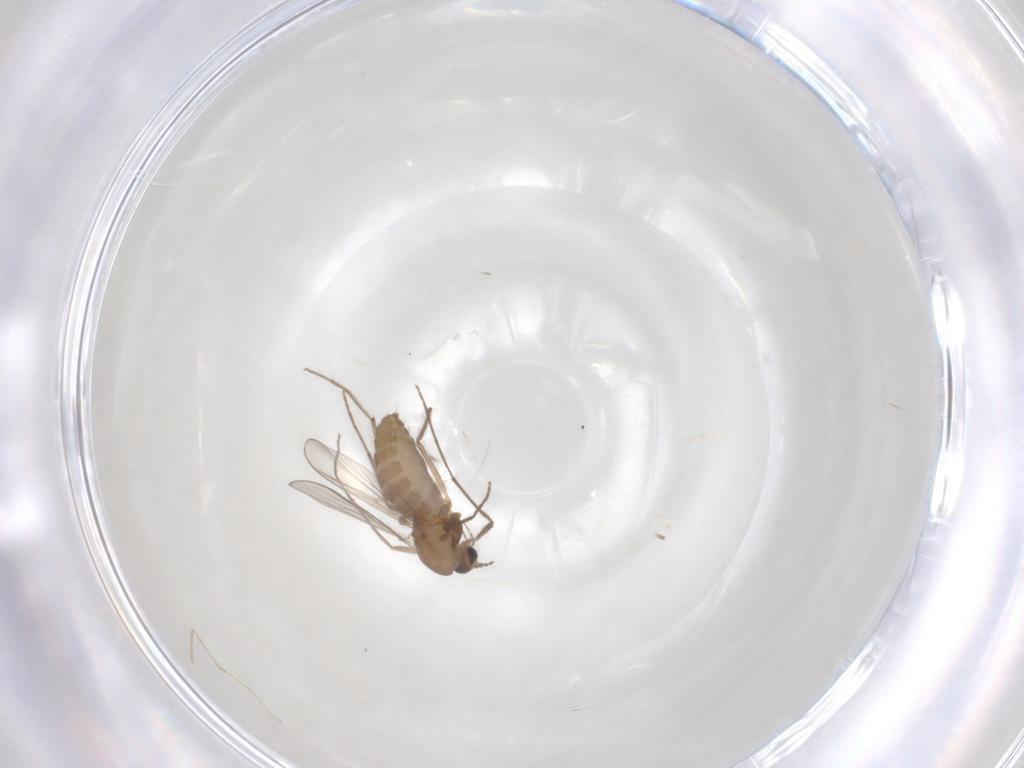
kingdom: Animalia
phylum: Arthropoda
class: Insecta
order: Diptera
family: Chironomidae
